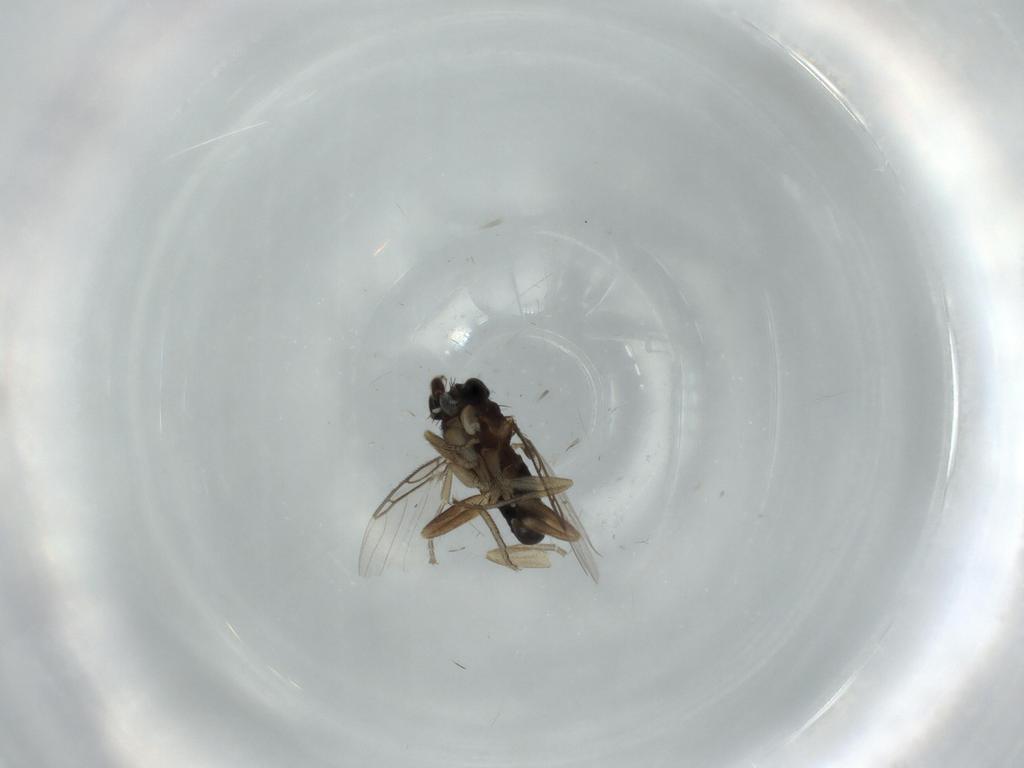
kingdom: Animalia
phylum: Arthropoda
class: Insecta
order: Diptera
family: Phoridae
